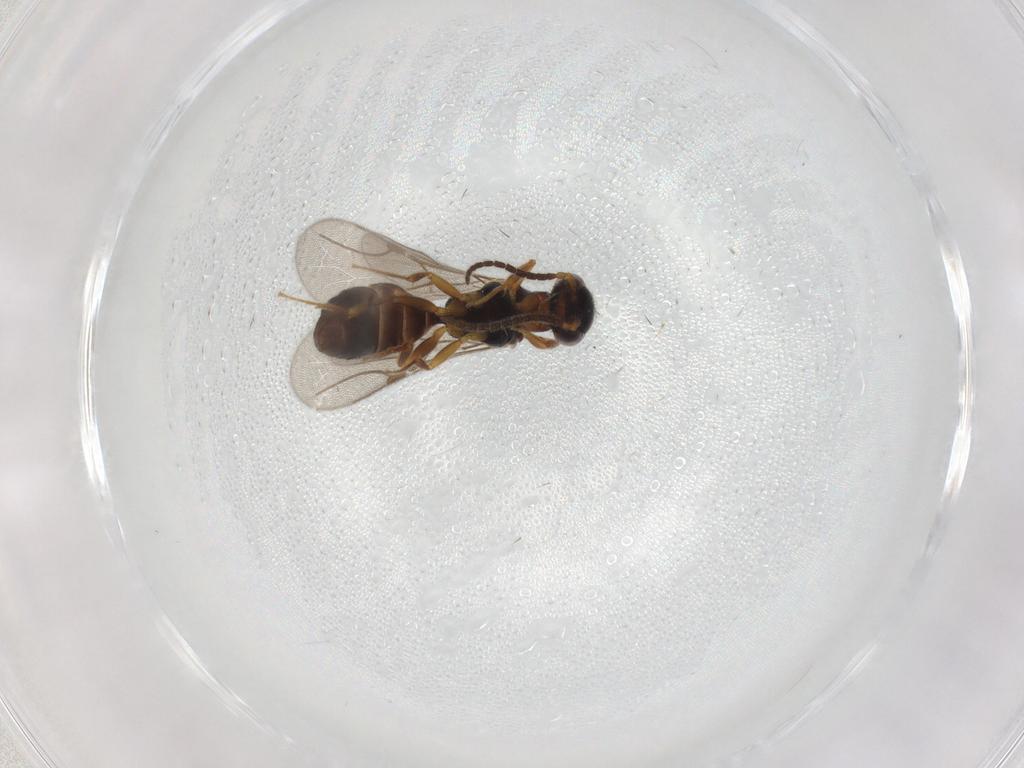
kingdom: Animalia
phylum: Arthropoda
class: Insecta
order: Hymenoptera
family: Bethylidae
